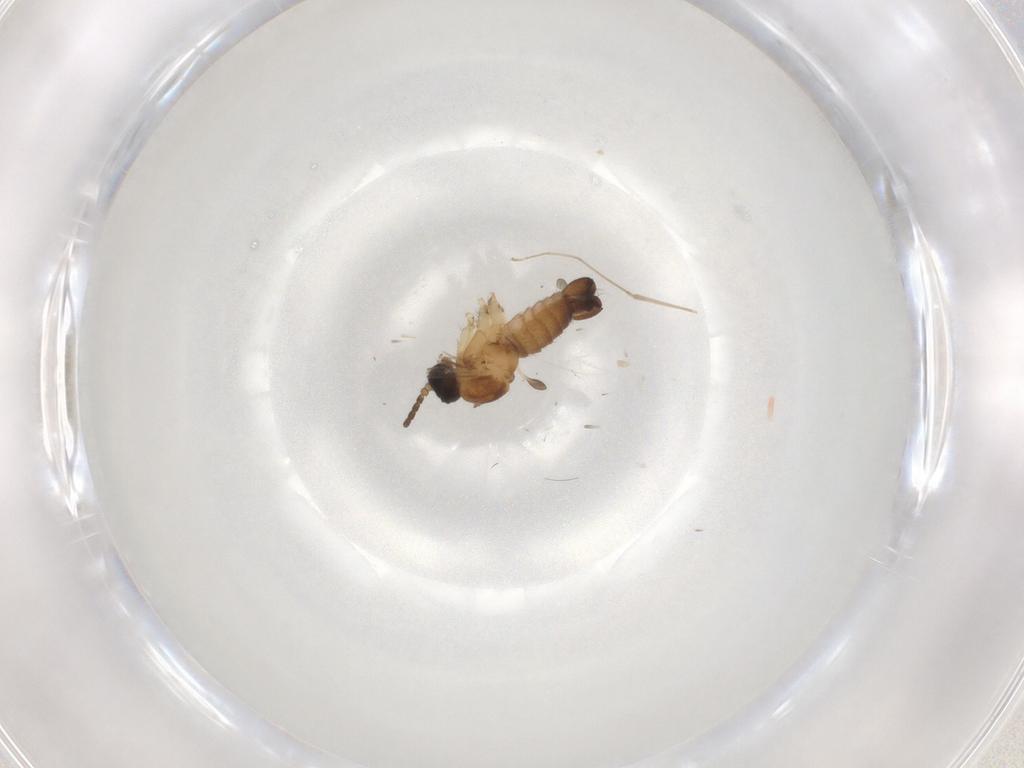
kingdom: Animalia
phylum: Arthropoda
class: Insecta
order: Diptera
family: Sciaridae
